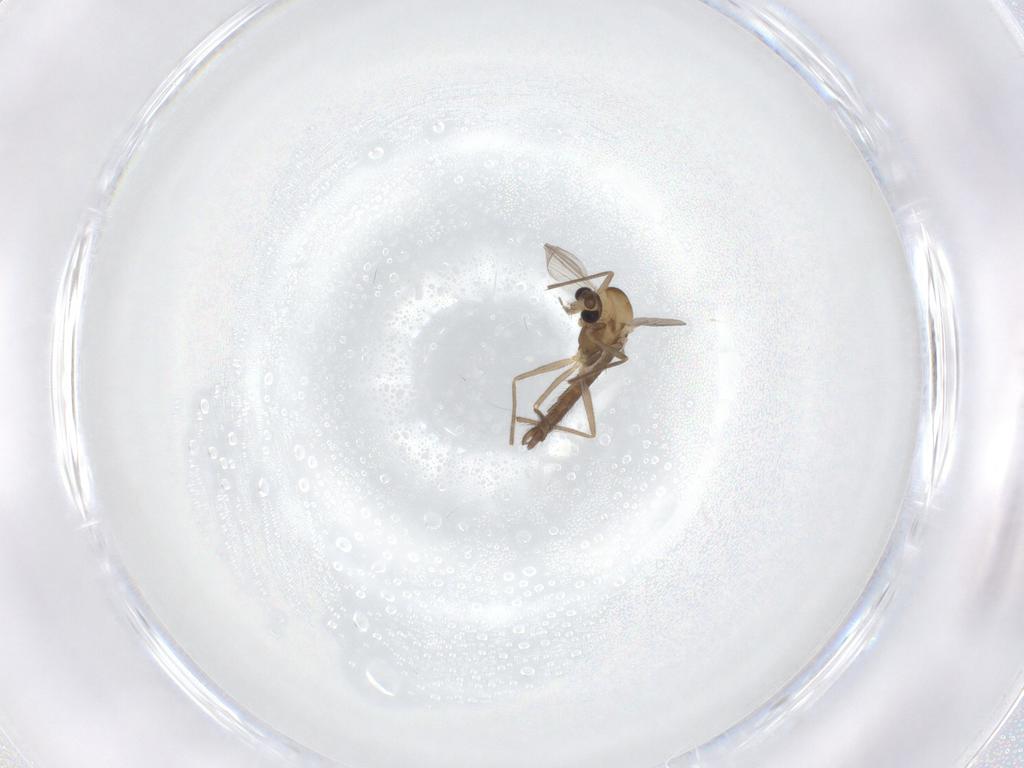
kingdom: Animalia
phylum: Arthropoda
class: Insecta
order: Diptera
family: Chironomidae
